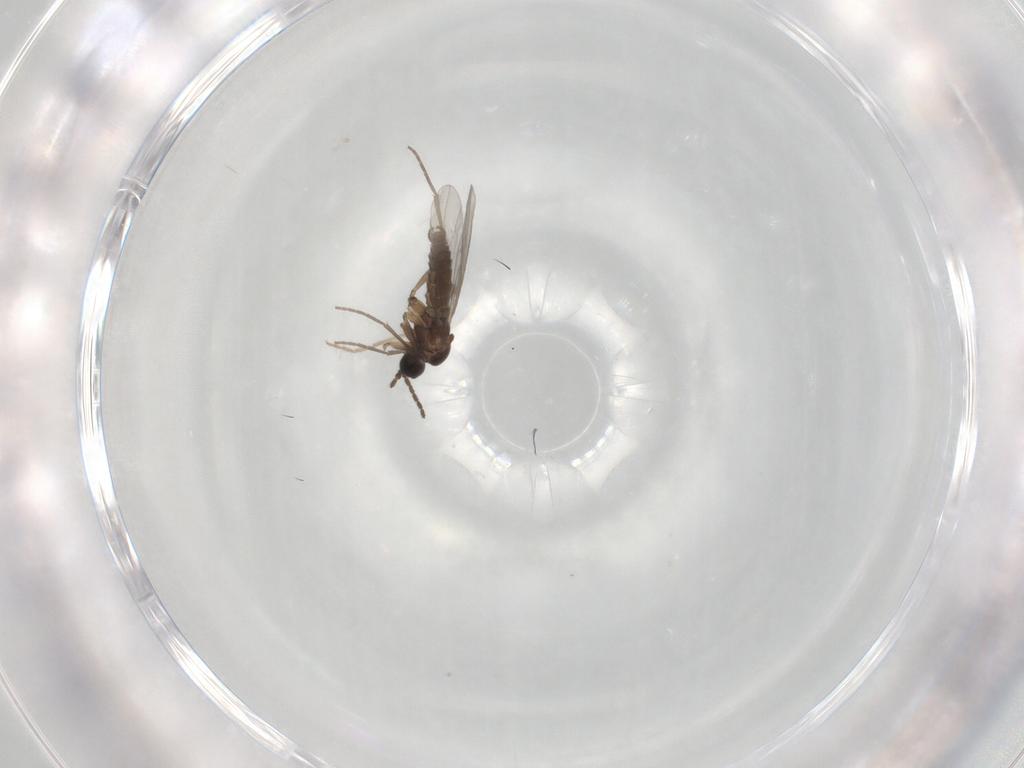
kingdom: Animalia
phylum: Arthropoda
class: Insecta
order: Diptera
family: Sciaridae
